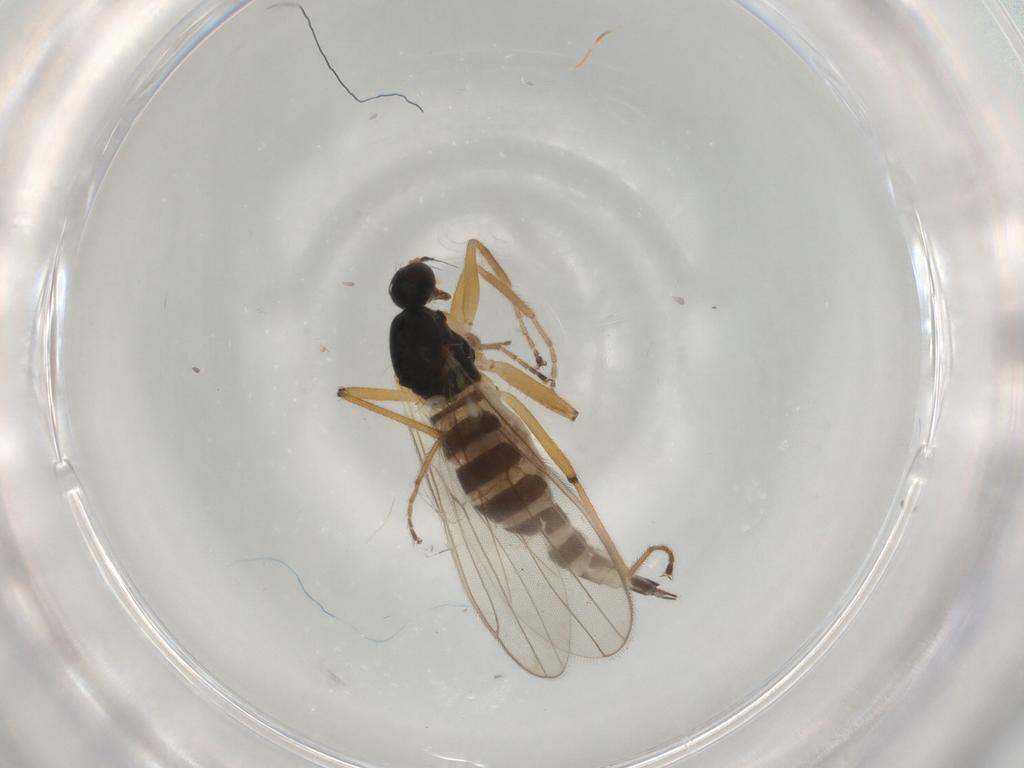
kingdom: Animalia
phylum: Arthropoda
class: Insecta
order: Diptera
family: Hybotidae
